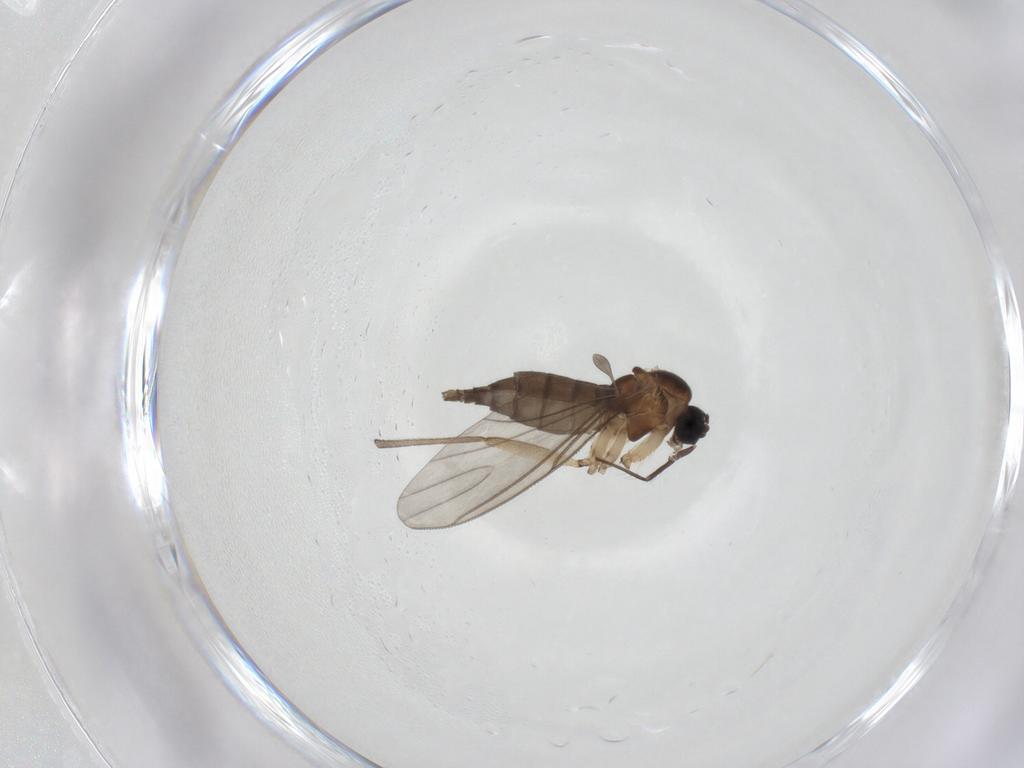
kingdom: Animalia
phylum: Arthropoda
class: Insecta
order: Diptera
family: Sciaridae
